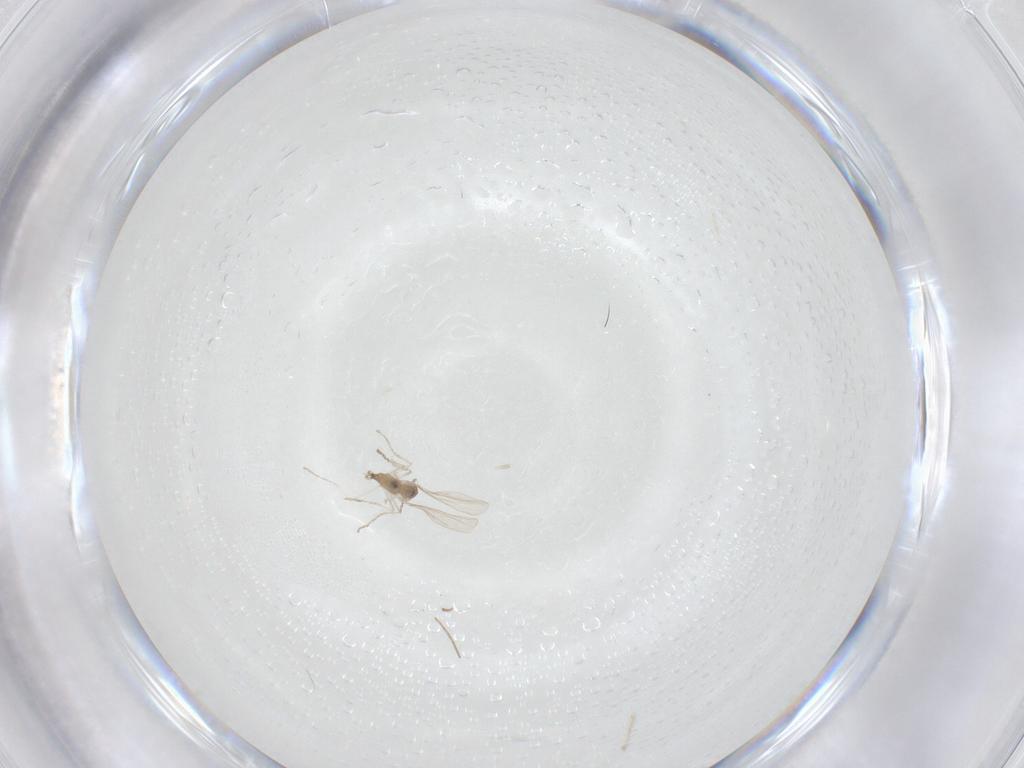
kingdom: Animalia
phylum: Arthropoda
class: Insecta
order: Diptera
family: Cecidomyiidae
